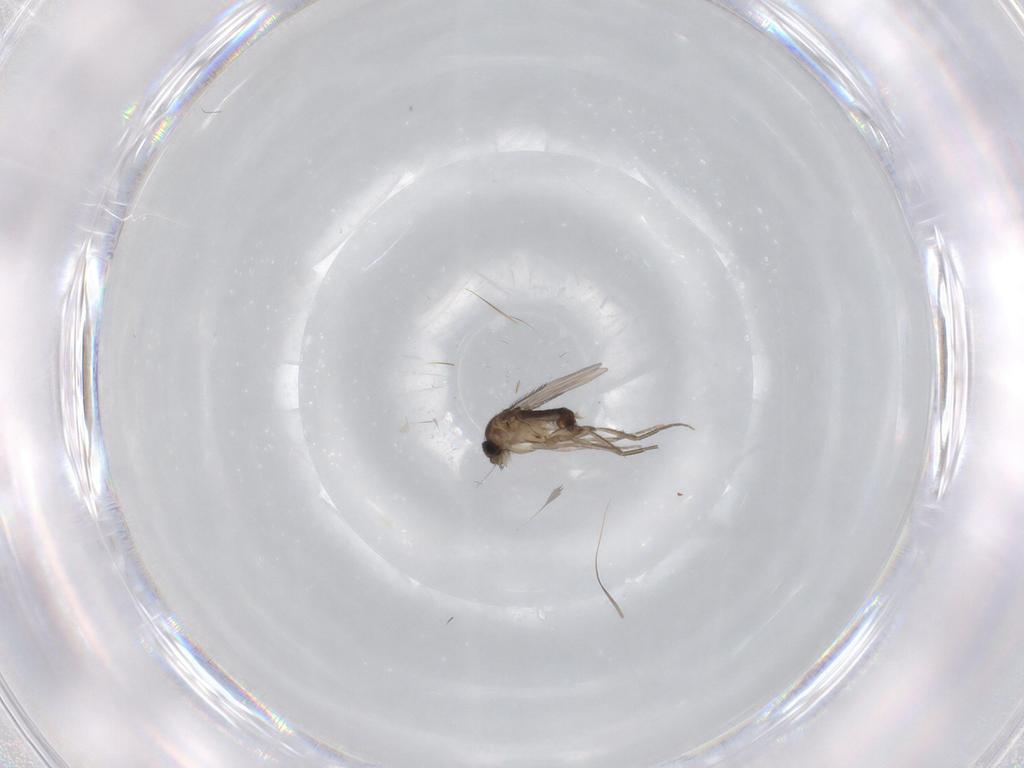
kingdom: Animalia
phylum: Arthropoda
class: Insecta
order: Diptera
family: Phoridae
